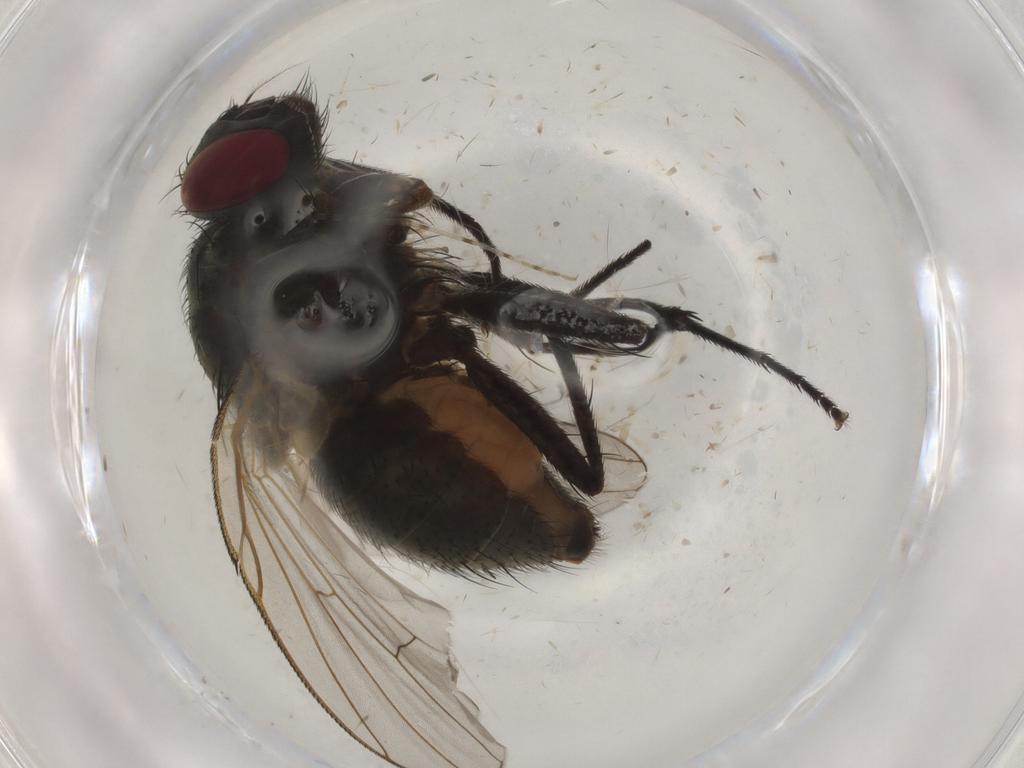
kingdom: Animalia
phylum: Arthropoda
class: Insecta
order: Diptera
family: Muscidae
